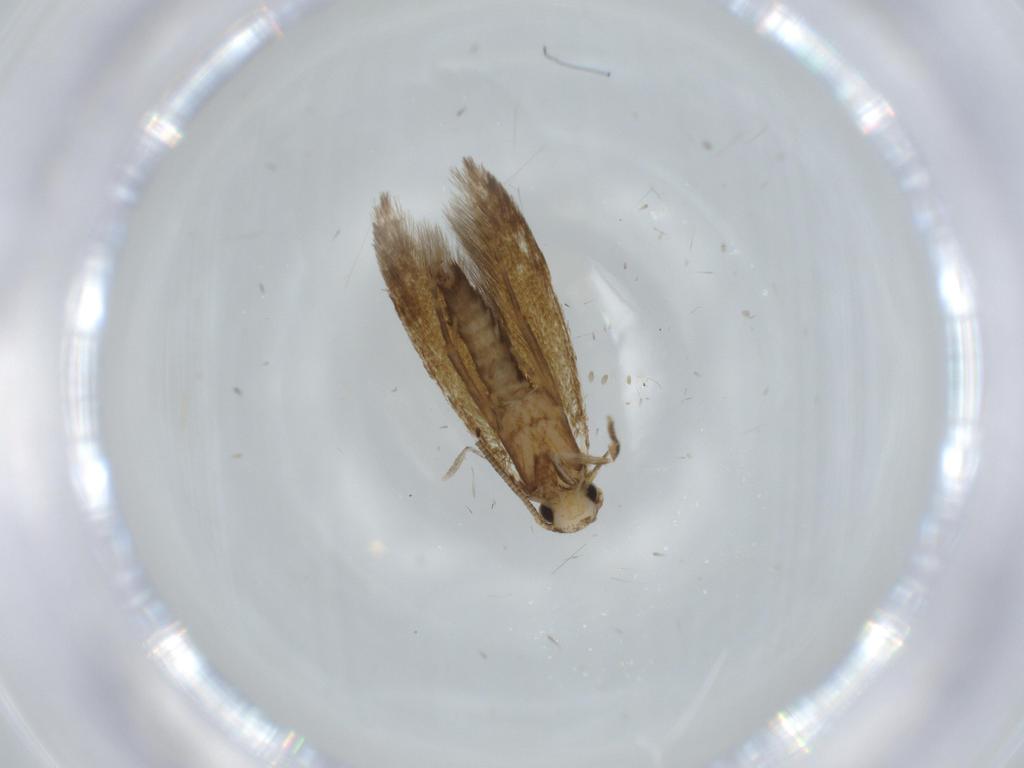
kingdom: Animalia
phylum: Arthropoda
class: Insecta
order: Lepidoptera
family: Tineidae
